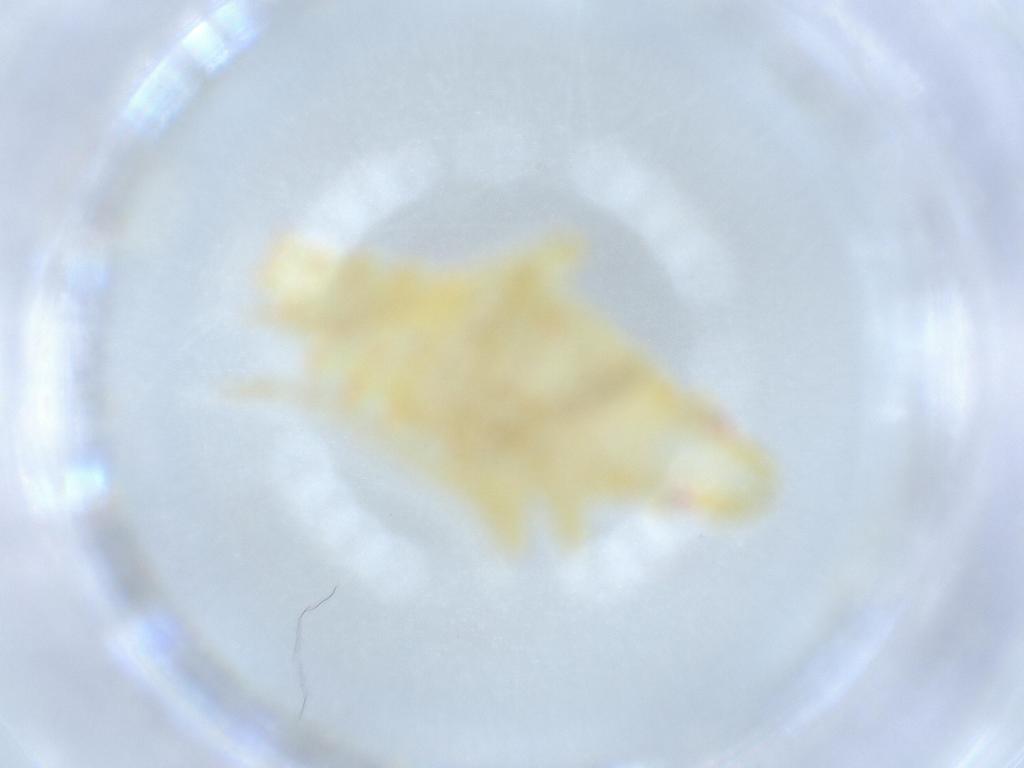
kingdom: Animalia
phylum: Arthropoda
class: Insecta
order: Hemiptera
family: Tropiduchidae
